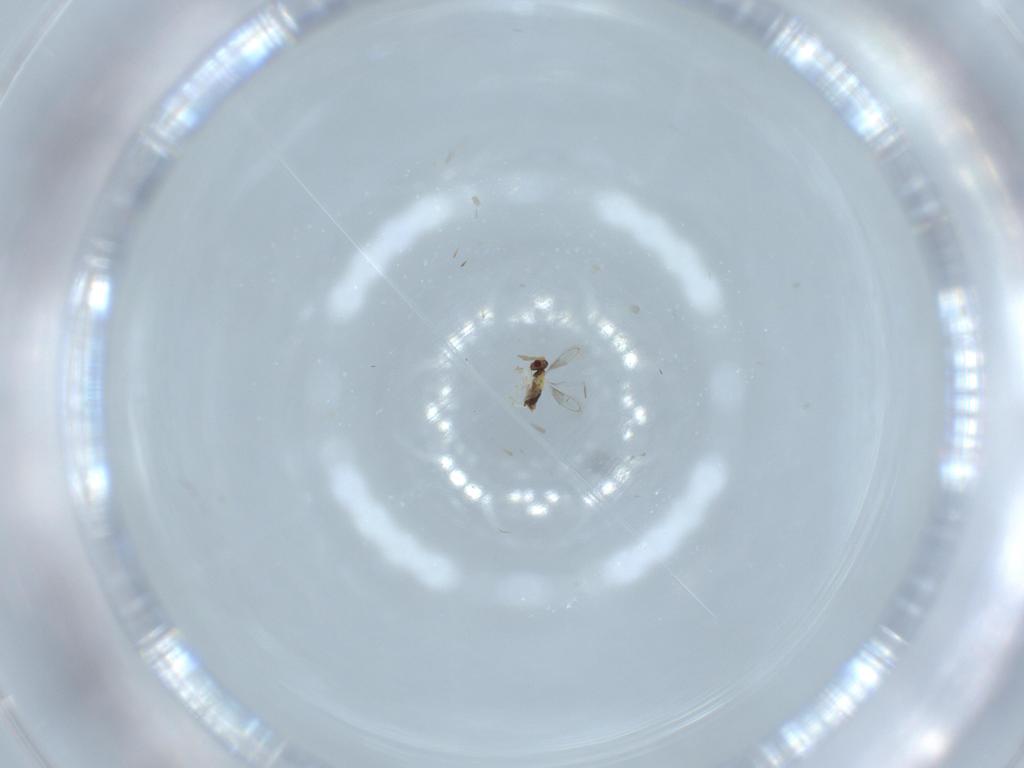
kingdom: Animalia
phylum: Arthropoda
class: Insecta
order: Hymenoptera
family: Aphelinidae
